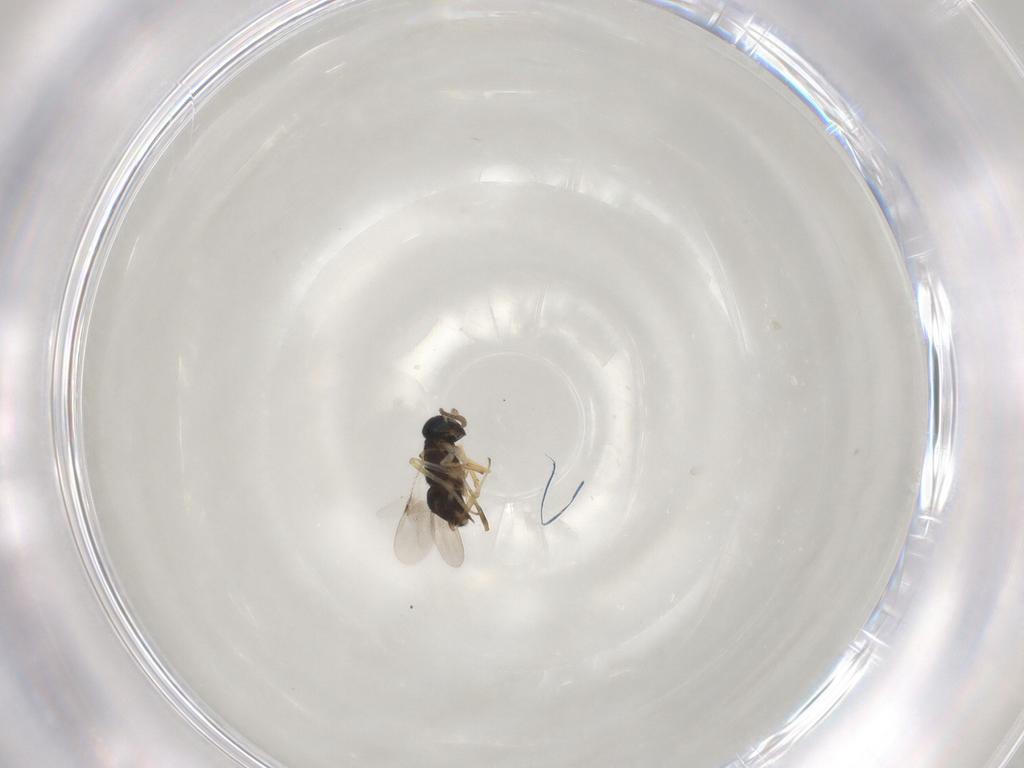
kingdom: Animalia
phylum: Arthropoda
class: Insecta
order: Hymenoptera
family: Encyrtidae
